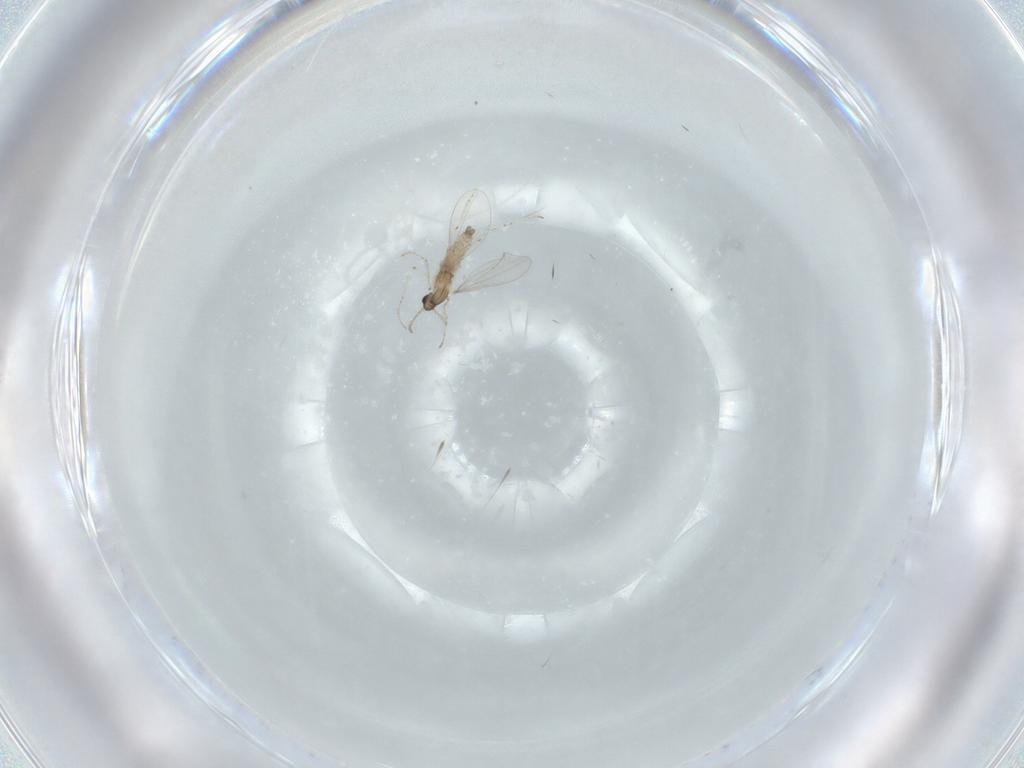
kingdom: Animalia
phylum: Arthropoda
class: Insecta
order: Diptera
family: Cecidomyiidae
